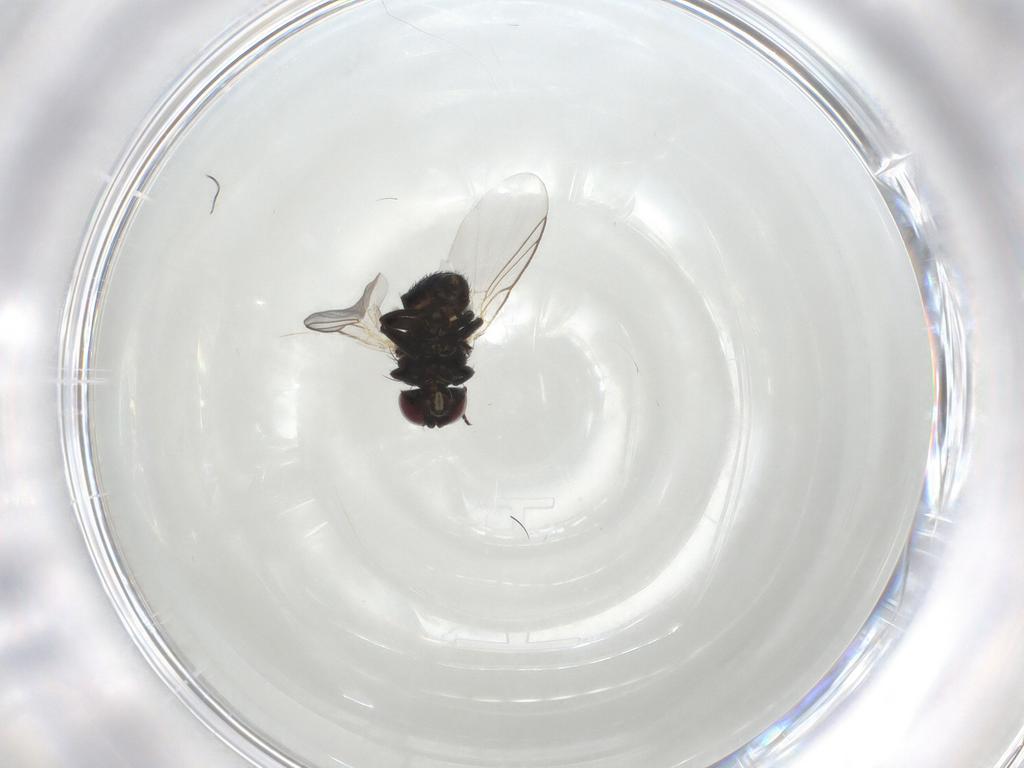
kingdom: Animalia
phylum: Arthropoda
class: Insecta
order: Diptera
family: Agromyzidae
